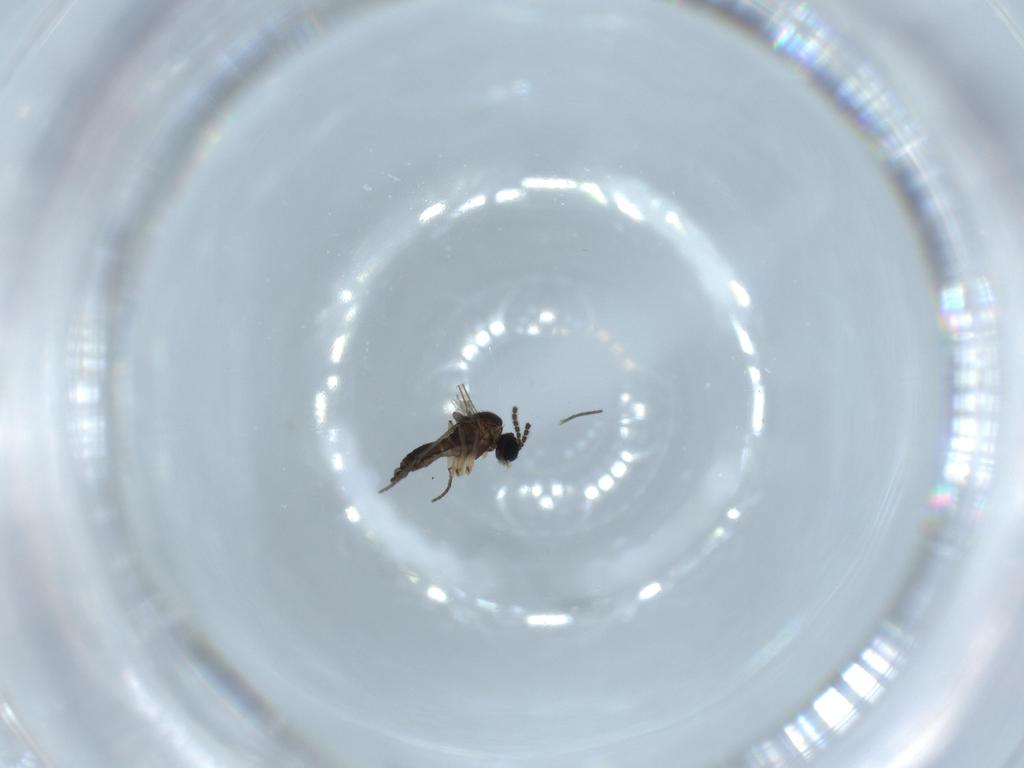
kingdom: Animalia
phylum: Arthropoda
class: Insecta
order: Diptera
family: Sciaridae
